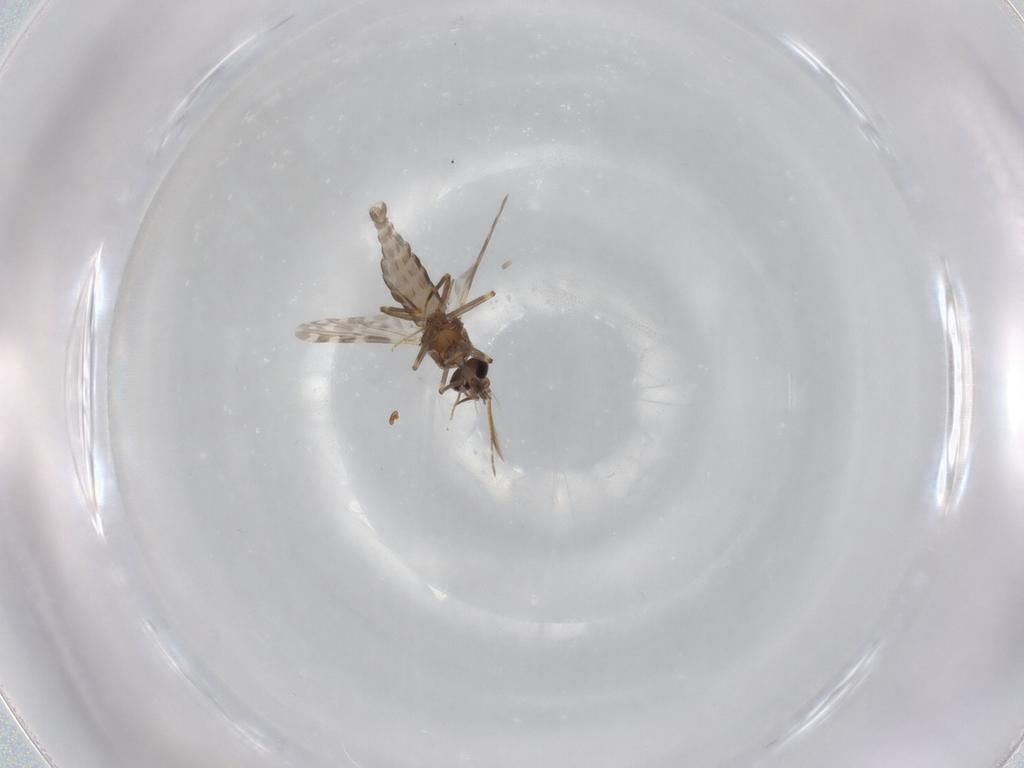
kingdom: Animalia
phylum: Arthropoda
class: Insecta
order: Diptera
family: Ceratopogonidae
